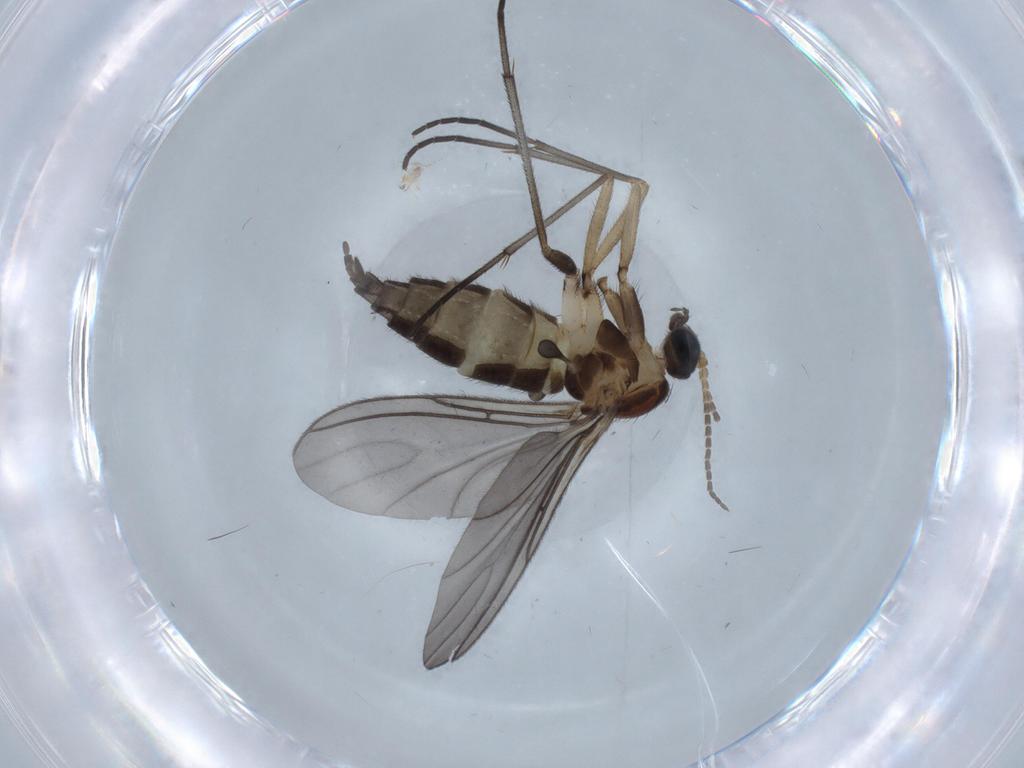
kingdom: Animalia
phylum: Arthropoda
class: Insecta
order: Diptera
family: Sciaridae
